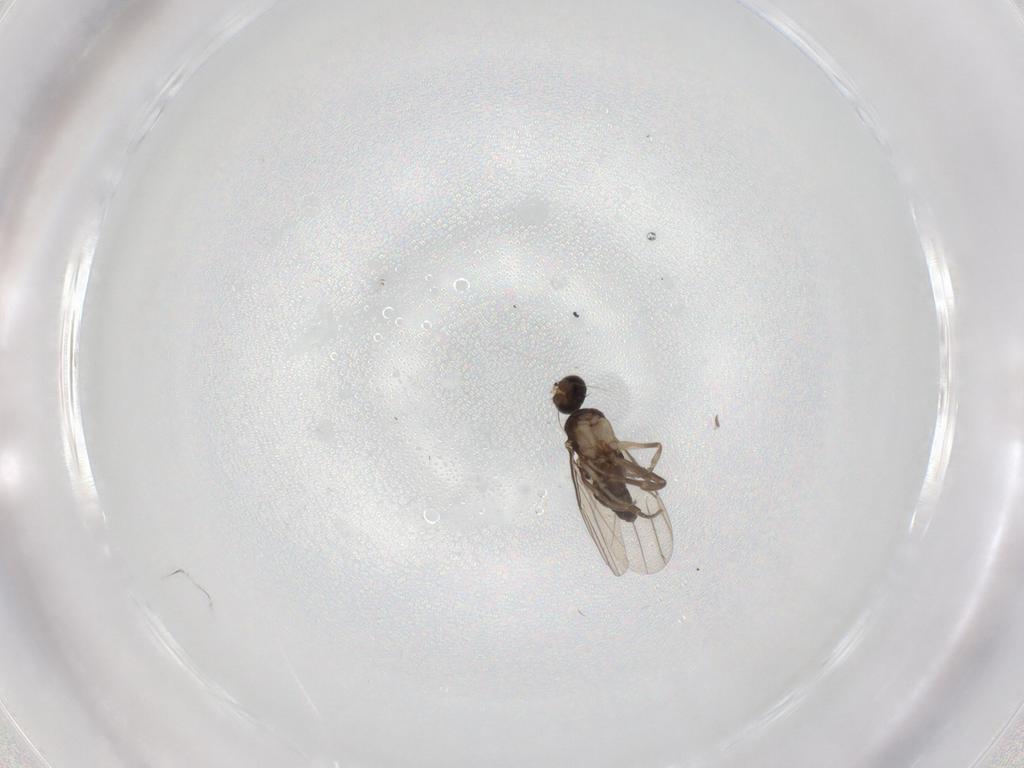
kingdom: Animalia
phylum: Arthropoda
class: Insecta
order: Diptera
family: Phoridae
